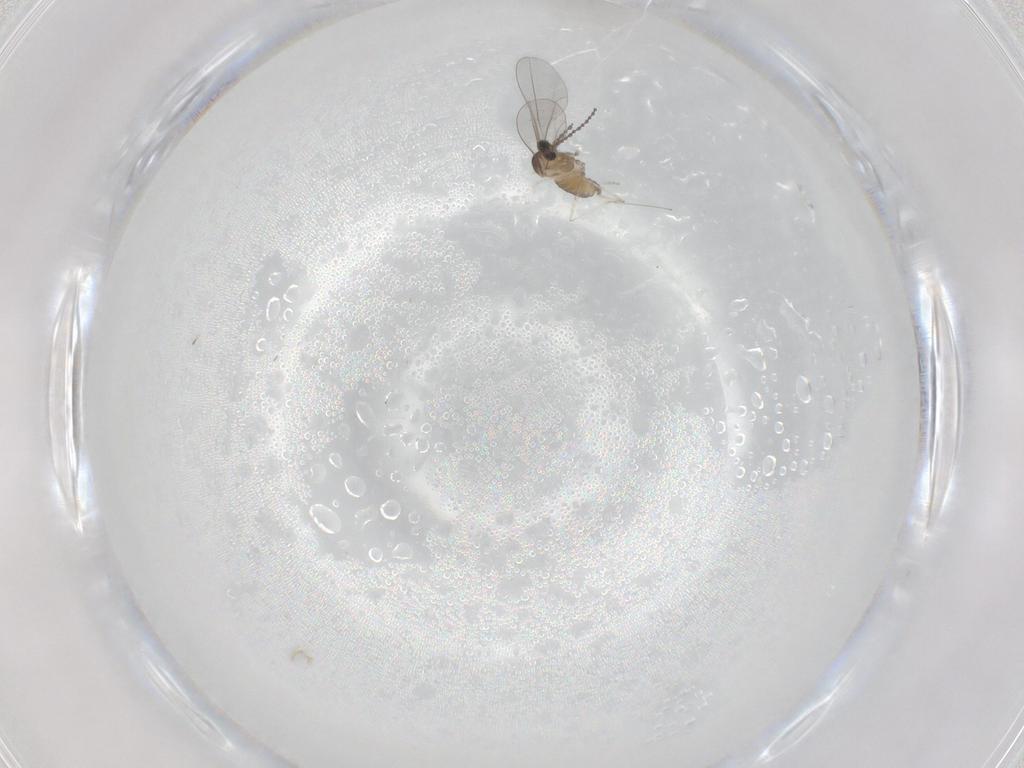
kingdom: Animalia
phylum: Arthropoda
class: Insecta
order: Diptera
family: Cecidomyiidae
